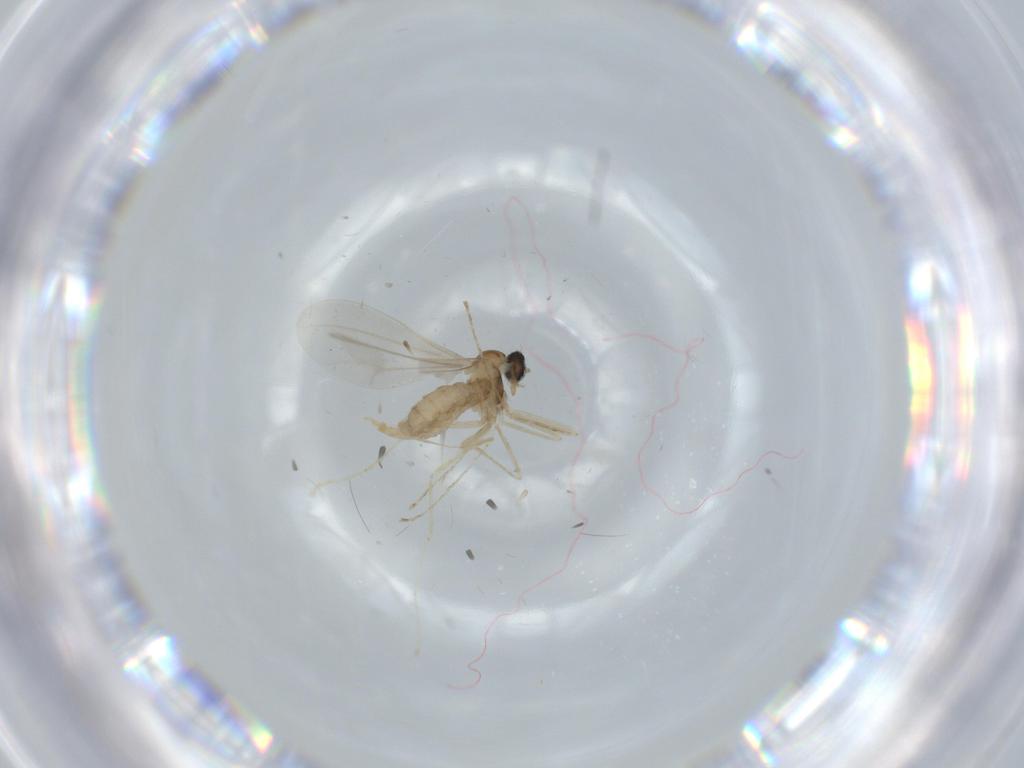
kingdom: Animalia
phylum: Arthropoda
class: Insecta
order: Diptera
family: Cecidomyiidae
